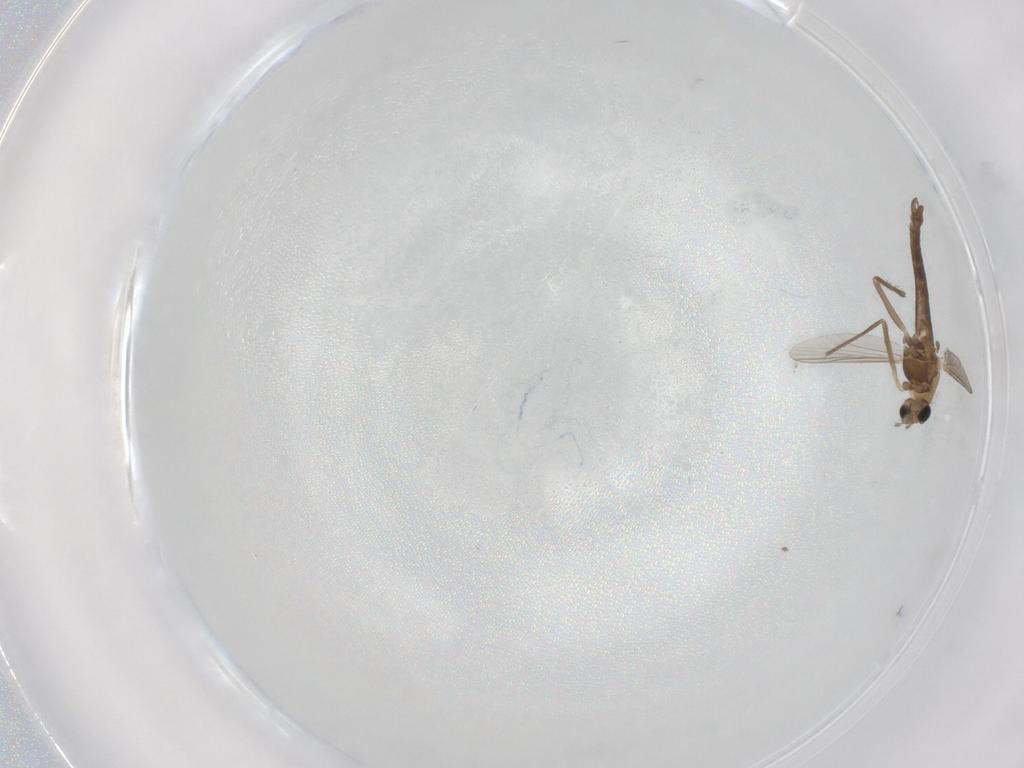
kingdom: Animalia
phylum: Arthropoda
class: Insecta
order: Diptera
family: Chironomidae
